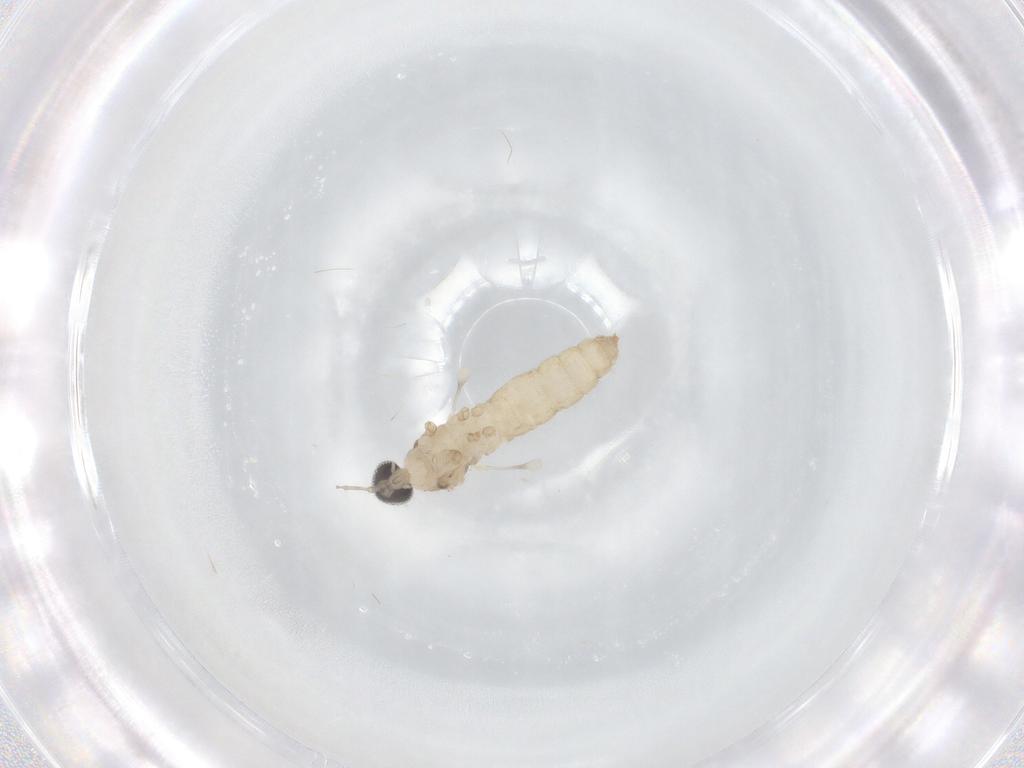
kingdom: Animalia
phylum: Arthropoda
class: Insecta
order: Diptera
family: Cecidomyiidae
